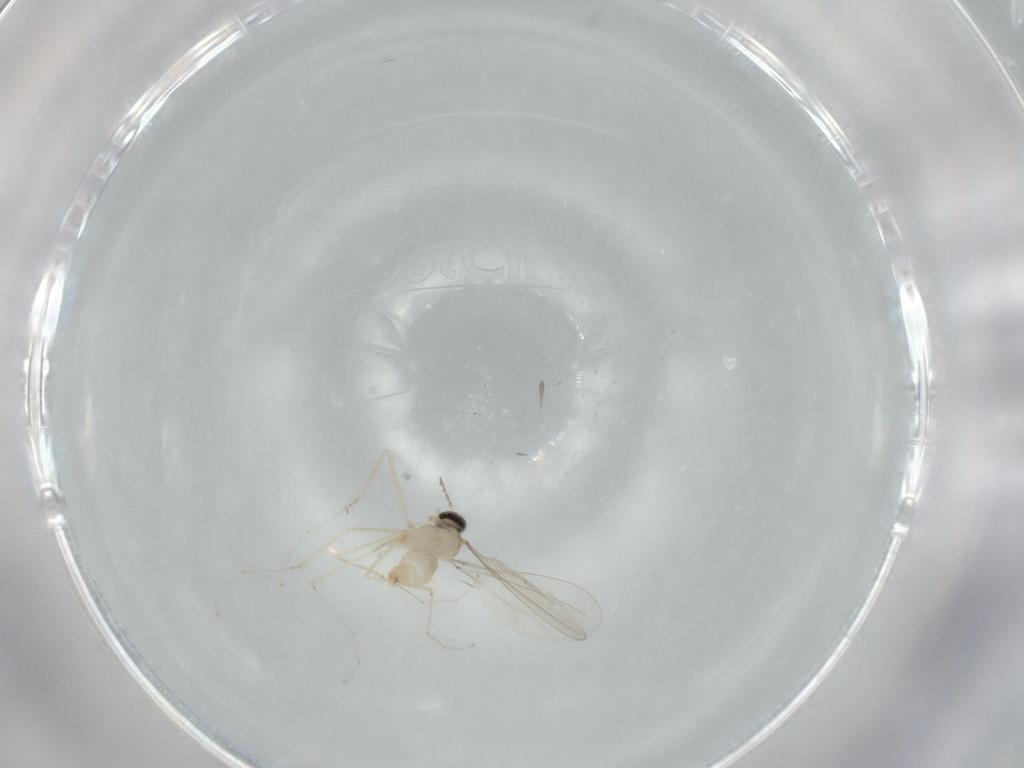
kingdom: Animalia
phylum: Arthropoda
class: Insecta
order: Diptera
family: Cecidomyiidae
